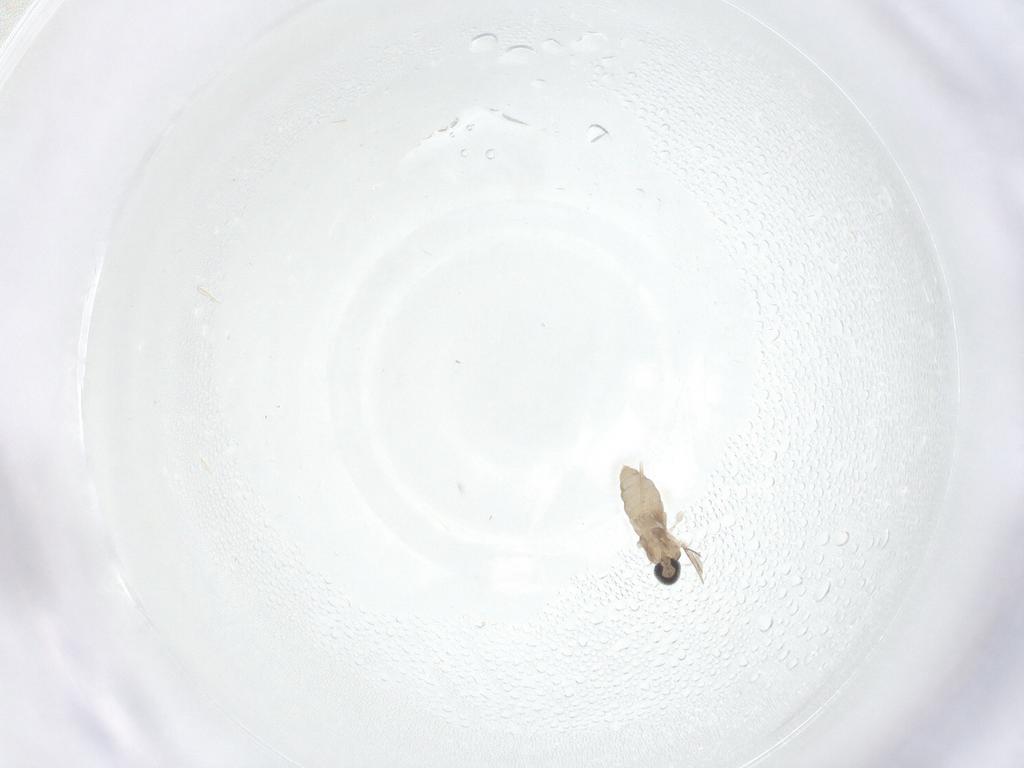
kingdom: Animalia
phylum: Arthropoda
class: Insecta
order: Diptera
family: Cecidomyiidae
